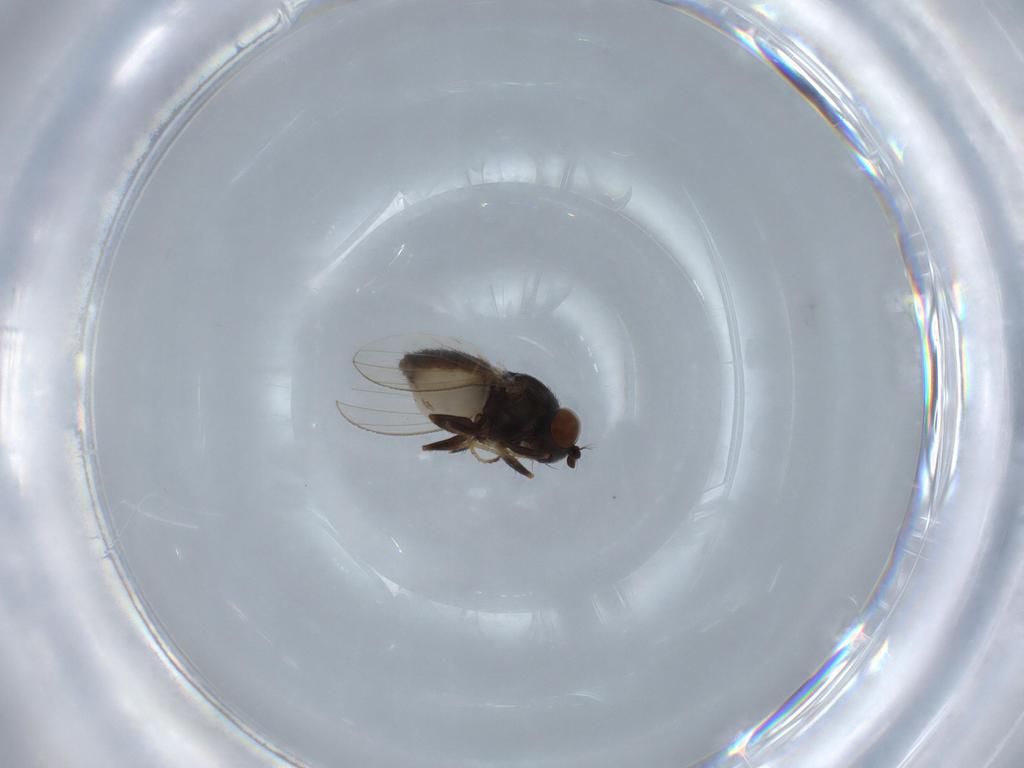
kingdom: Animalia
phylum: Arthropoda
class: Insecta
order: Diptera
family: Ephydridae
